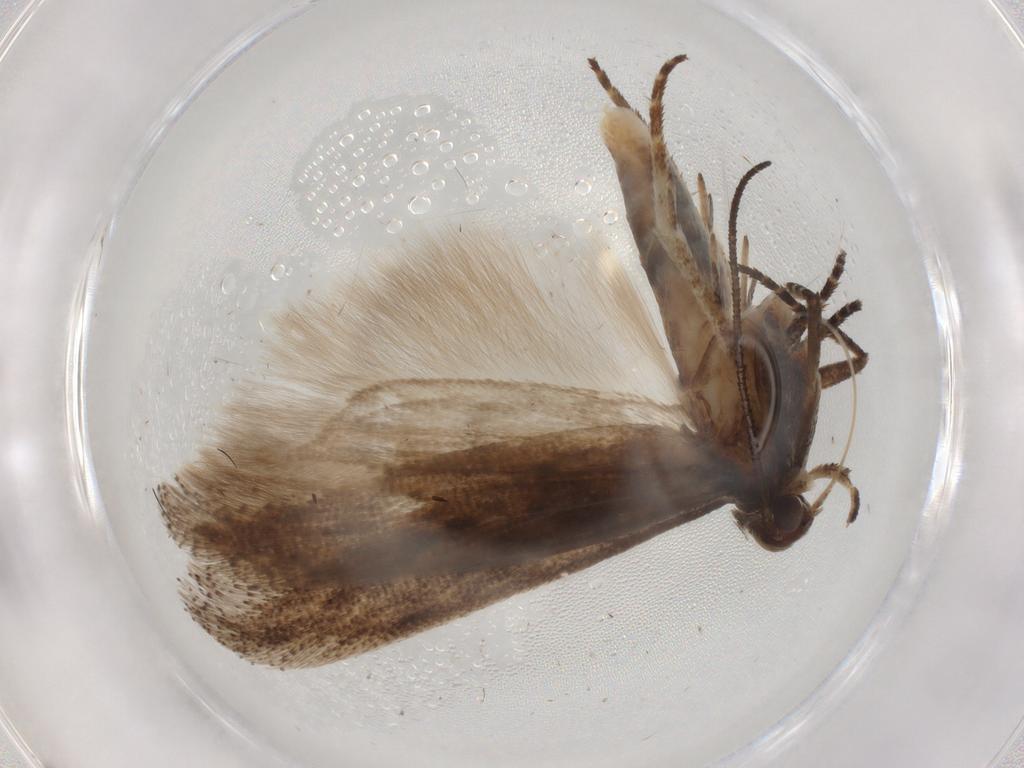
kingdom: Animalia
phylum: Arthropoda
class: Insecta
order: Lepidoptera
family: Gelechiidae
